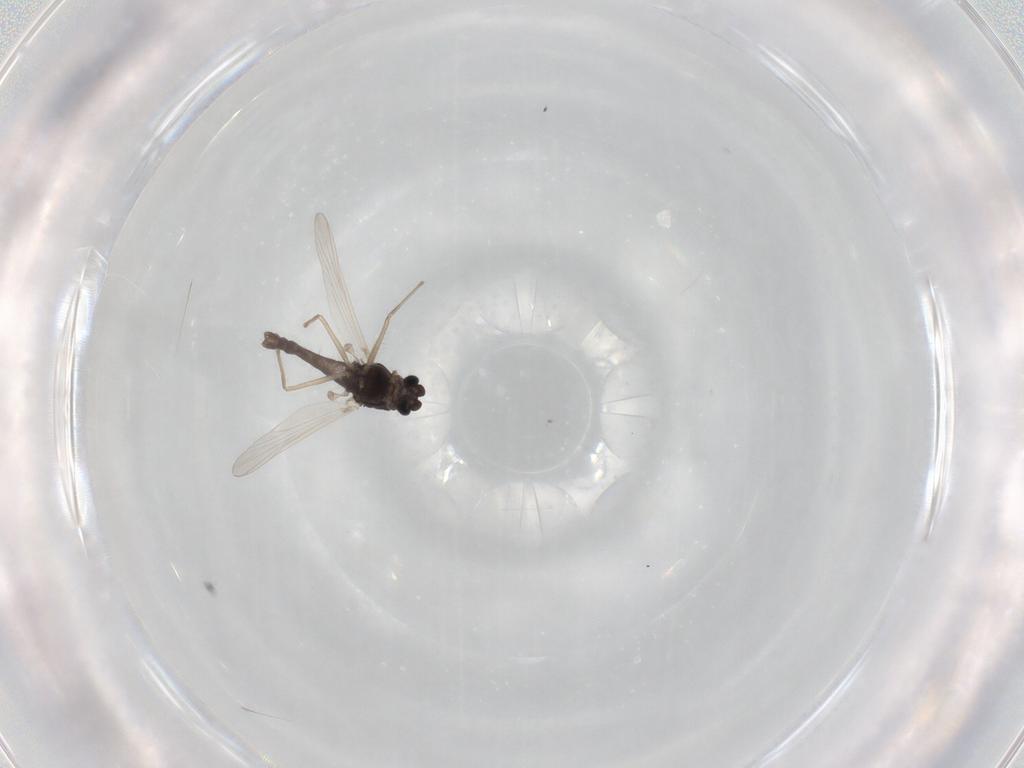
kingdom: Animalia
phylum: Arthropoda
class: Insecta
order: Diptera
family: Chironomidae
